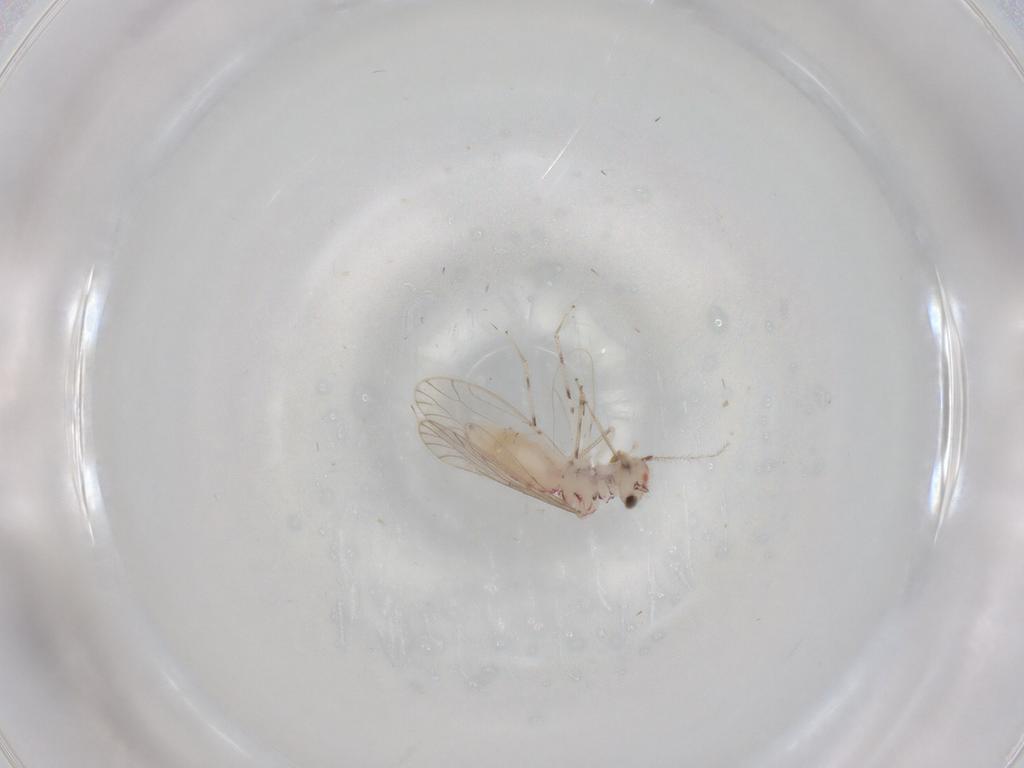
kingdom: Animalia
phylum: Arthropoda
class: Insecta
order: Psocodea
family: Caeciliusidae
